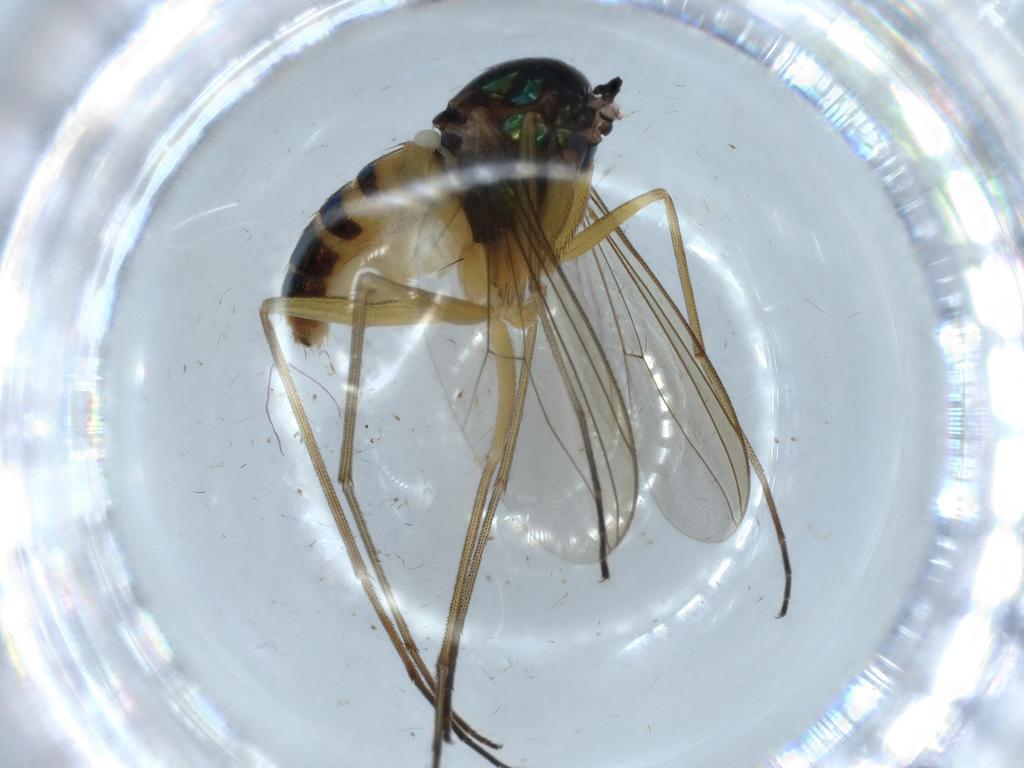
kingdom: Animalia
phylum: Arthropoda
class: Insecta
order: Diptera
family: Dolichopodidae
